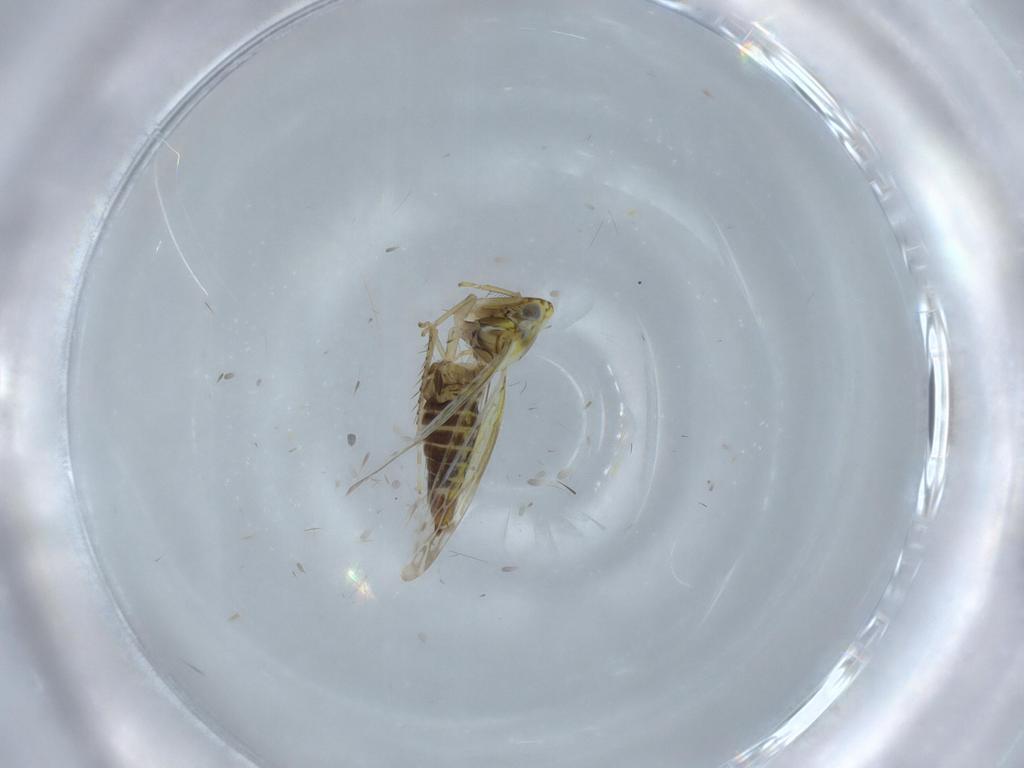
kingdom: Animalia
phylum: Arthropoda
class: Insecta
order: Hemiptera
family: Cicadellidae
